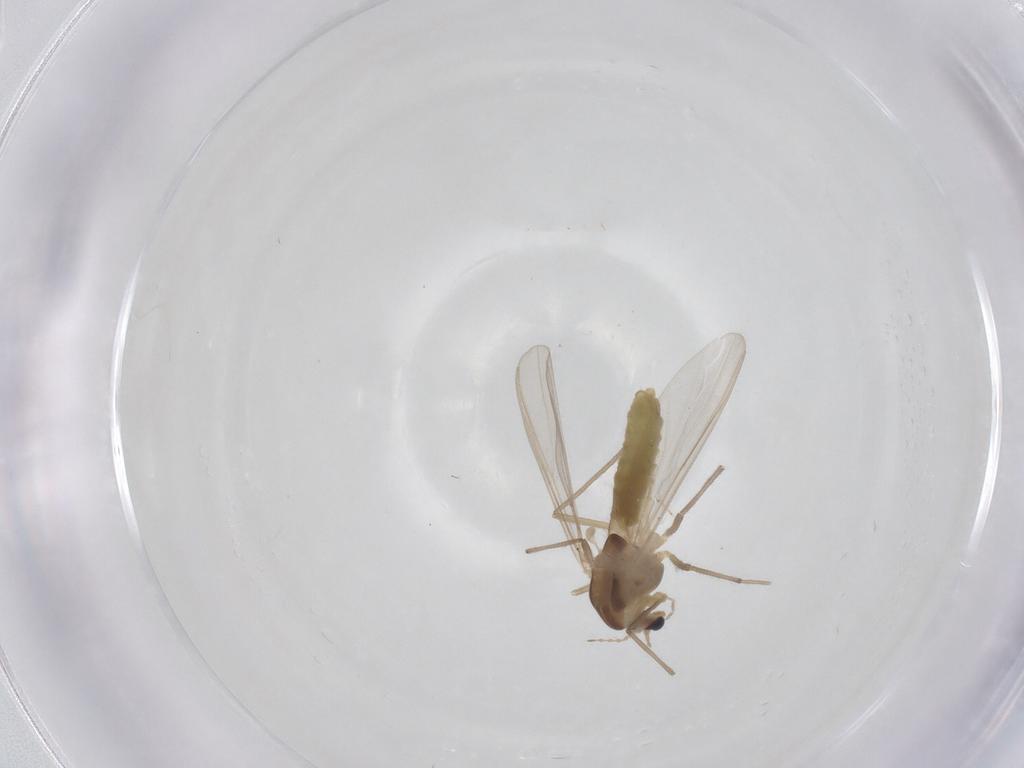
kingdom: Animalia
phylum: Arthropoda
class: Insecta
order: Diptera
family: Chironomidae
